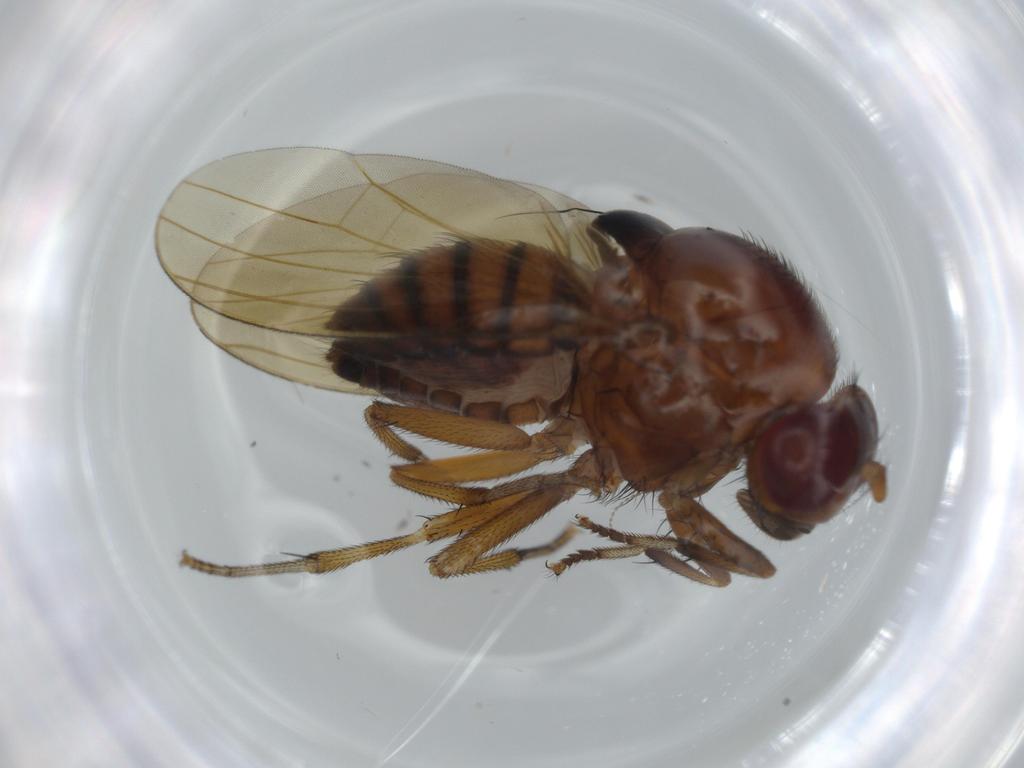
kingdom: Animalia
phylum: Arthropoda
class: Insecta
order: Diptera
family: Lauxaniidae
